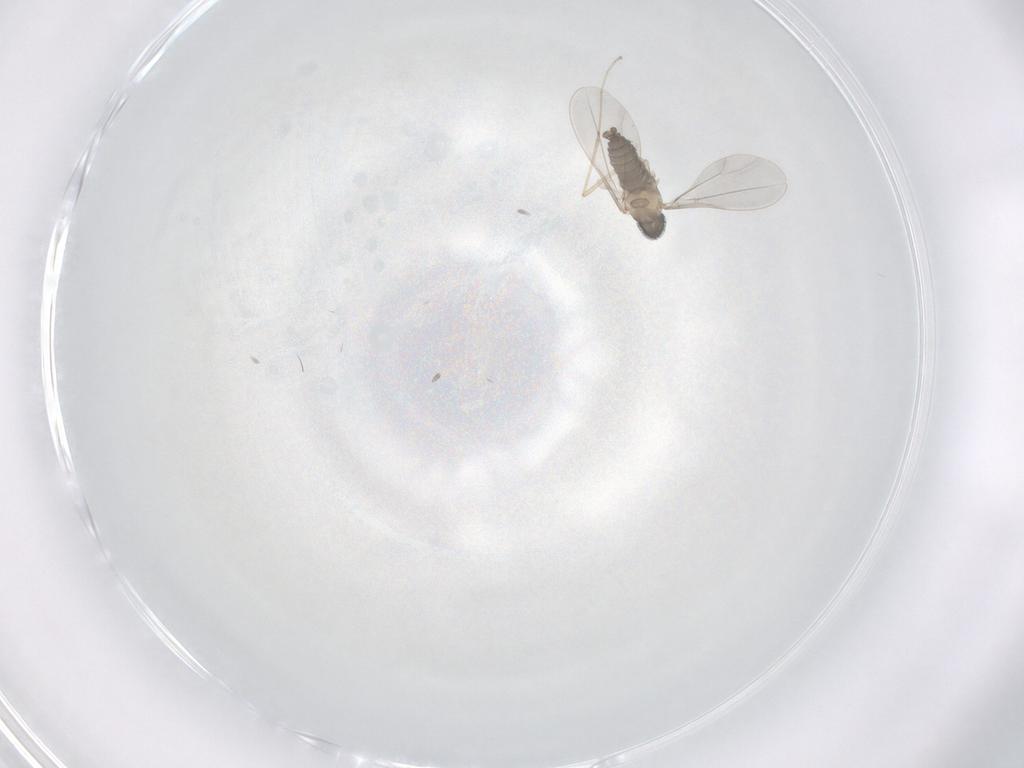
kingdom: Animalia
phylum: Arthropoda
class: Insecta
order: Diptera
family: Cecidomyiidae
